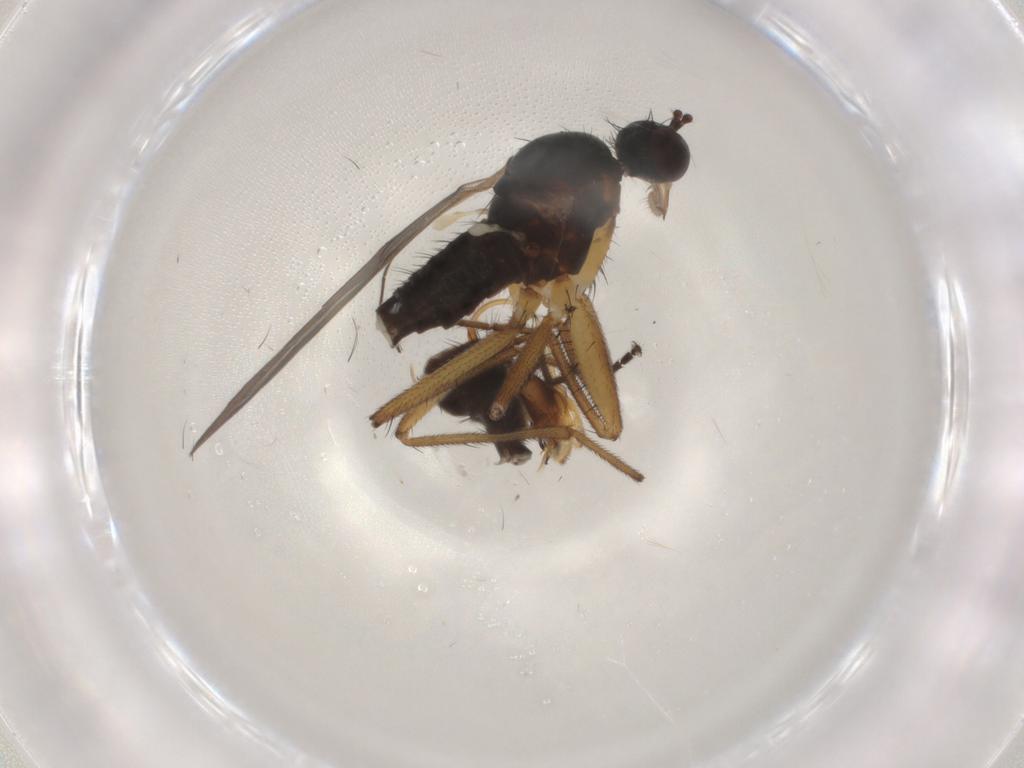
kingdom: Animalia
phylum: Arthropoda
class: Insecta
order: Diptera
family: Empididae
